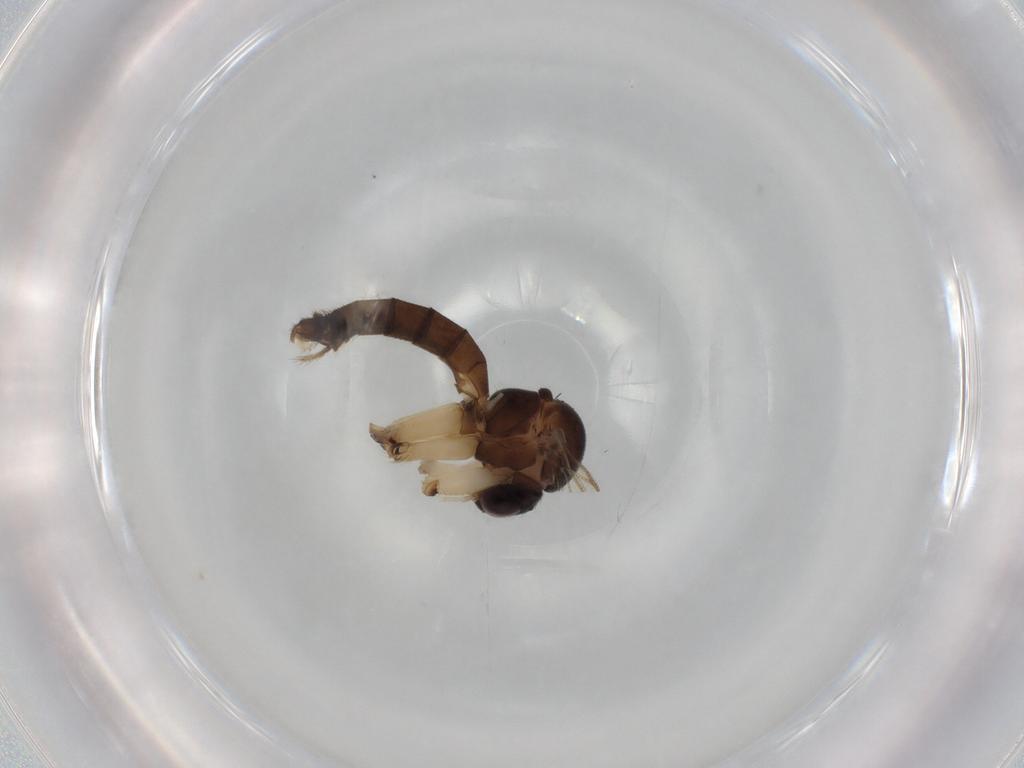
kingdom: Animalia
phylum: Arthropoda
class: Insecta
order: Diptera
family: Mycetophilidae
